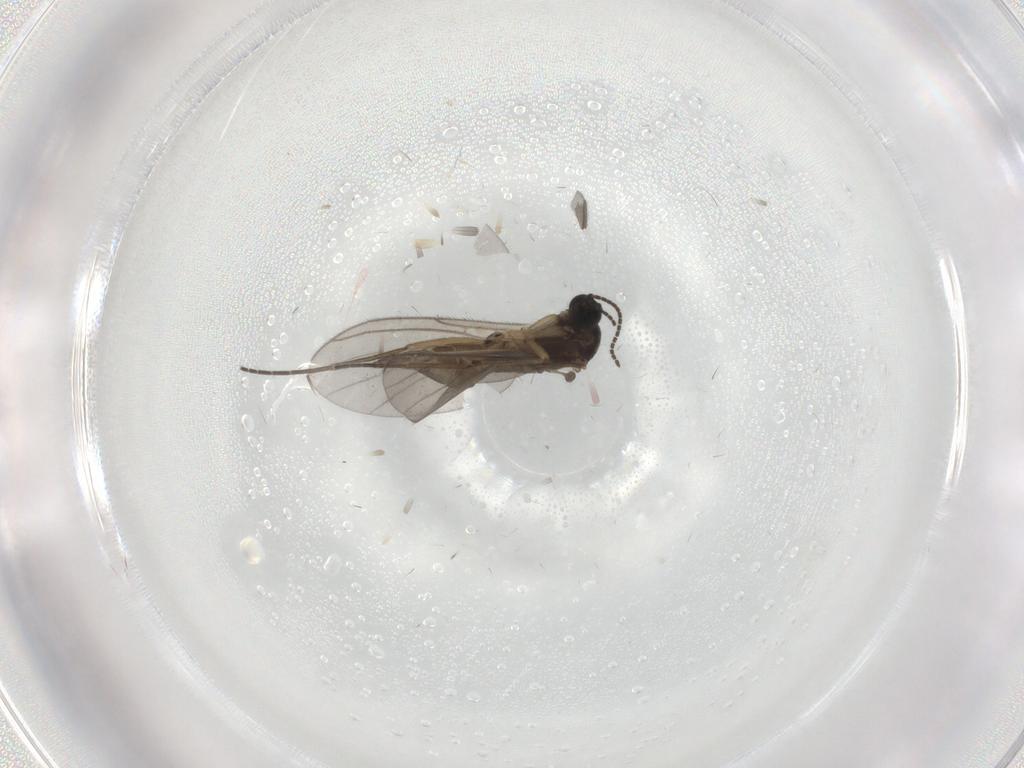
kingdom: Animalia
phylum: Arthropoda
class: Insecta
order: Diptera
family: Sciaridae
